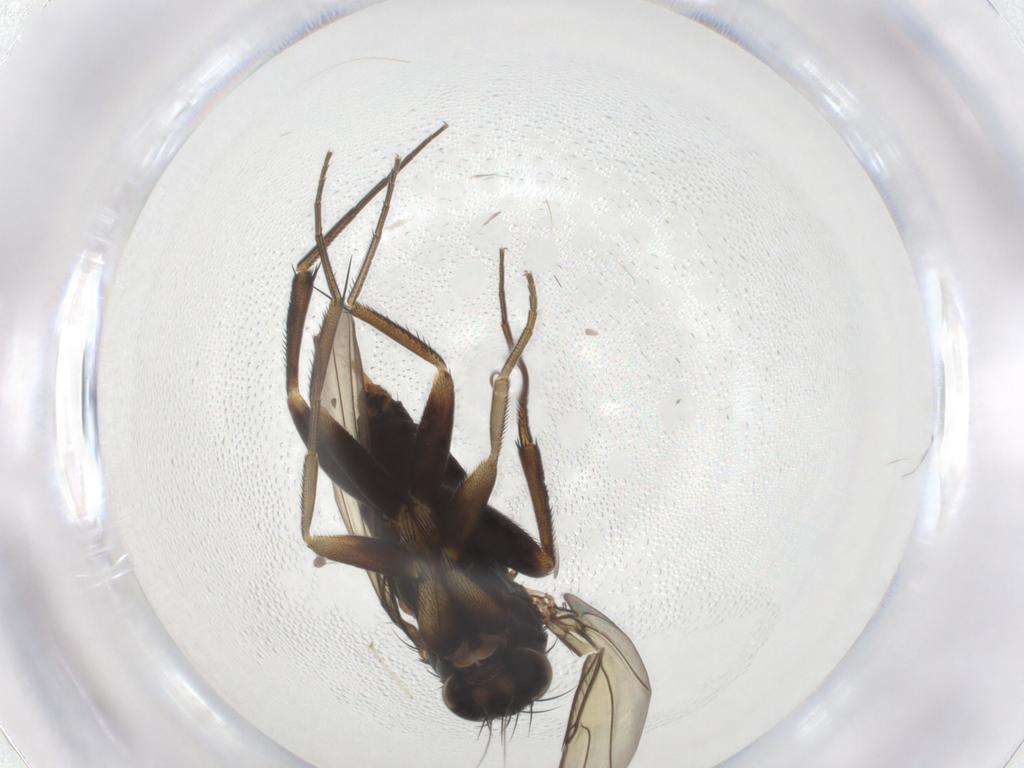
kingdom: Animalia
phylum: Arthropoda
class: Insecta
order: Diptera
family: Phoridae
